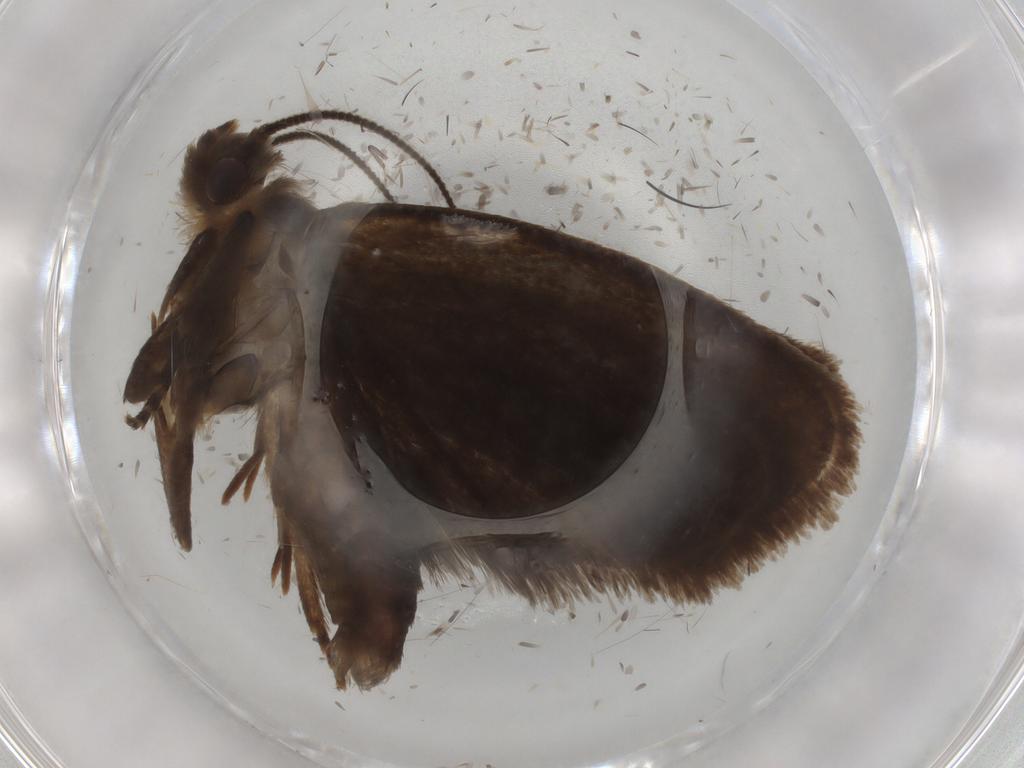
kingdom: Animalia
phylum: Arthropoda
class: Insecta
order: Lepidoptera
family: Tineidae
